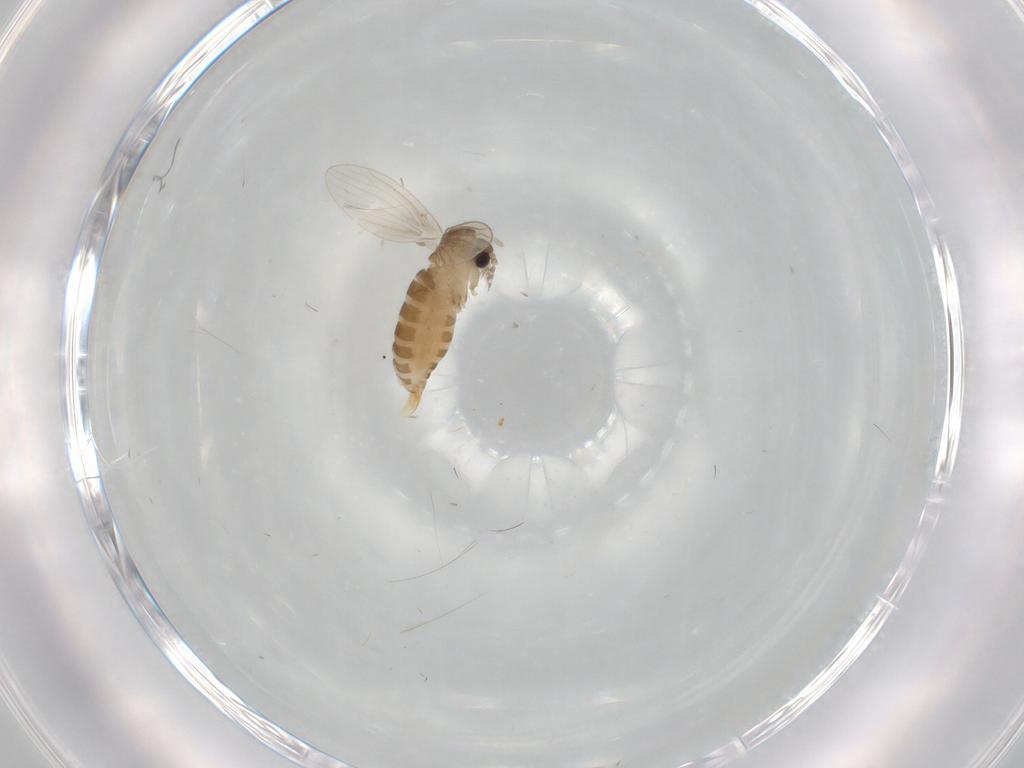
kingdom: Animalia
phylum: Arthropoda
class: Insecta
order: Diptera
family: Psychodidae
